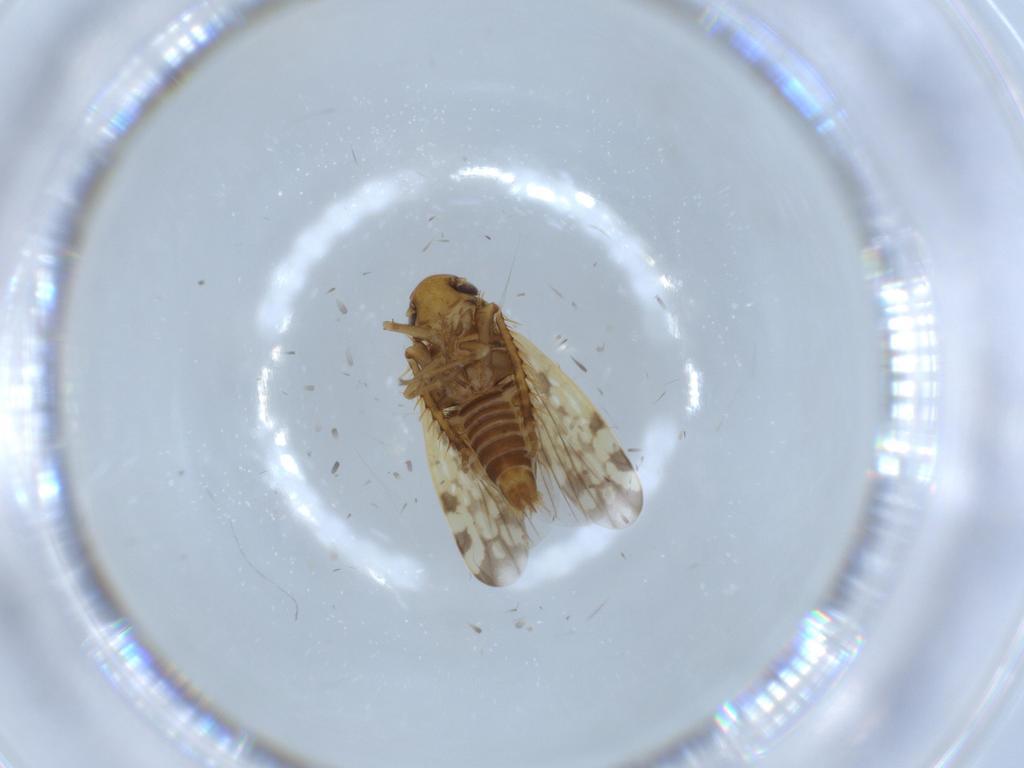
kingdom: Animalia
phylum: Arthropoda
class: Insecta
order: Hemiptera
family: Cicadellidae
